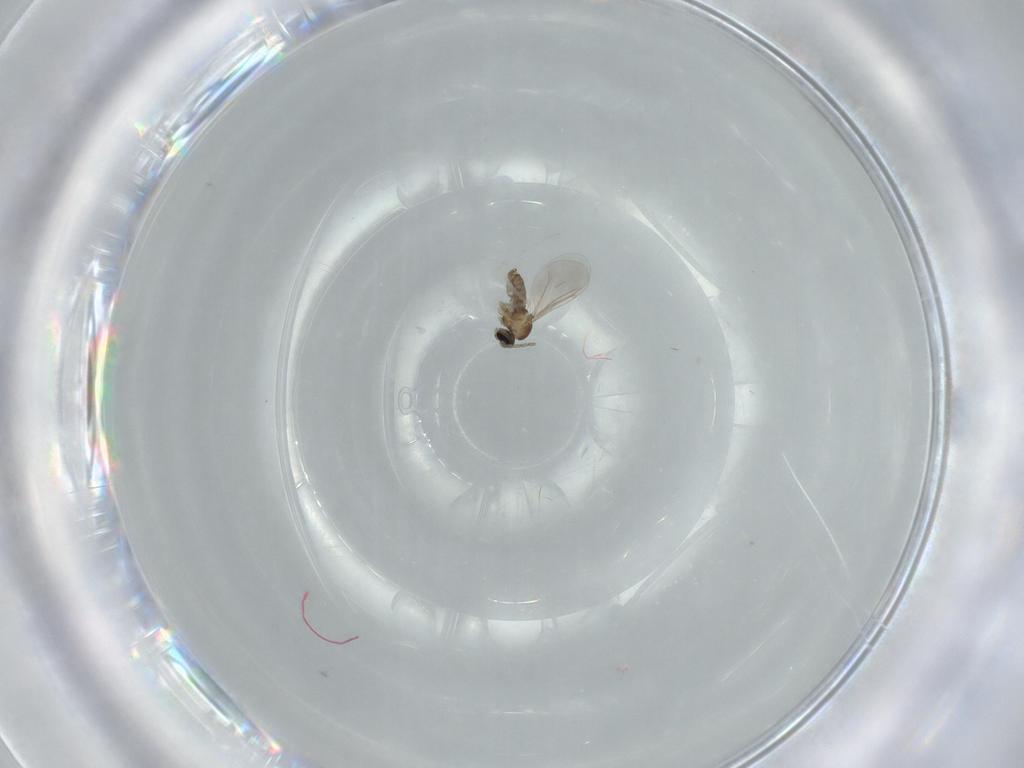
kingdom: Animalia
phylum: Arthropoda
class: Insecta
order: Diptera
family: Cecidomyiidae
